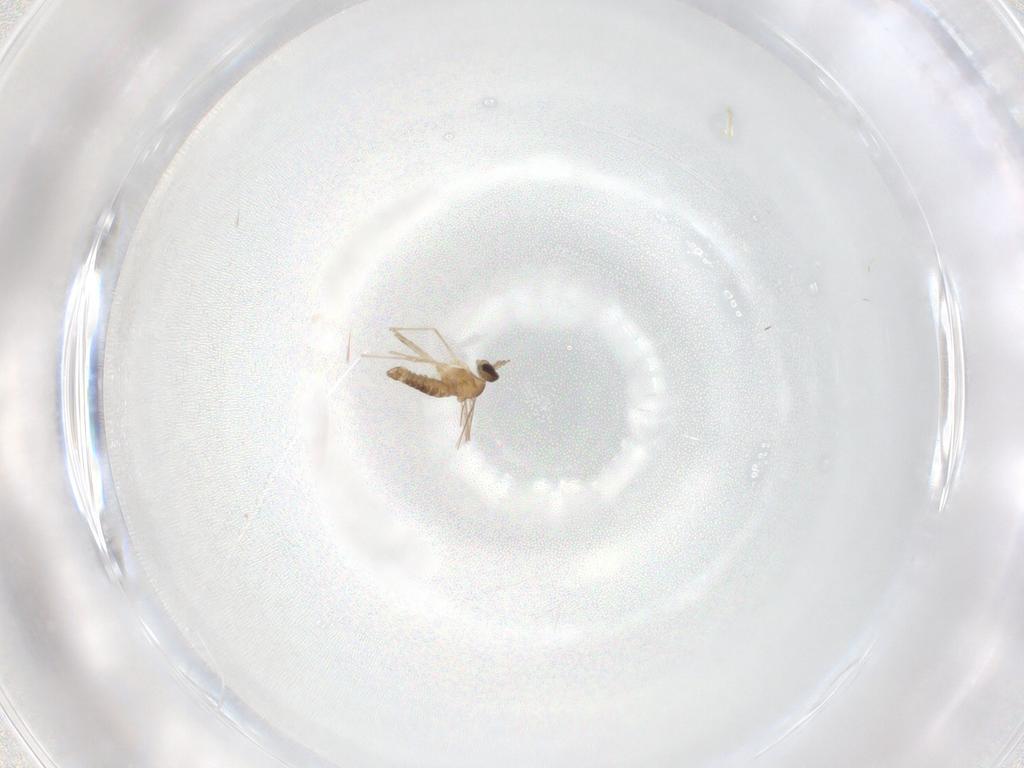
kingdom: Animalia
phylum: Arthropoda
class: Insecta
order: Diptera
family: Cecidomyiidae
